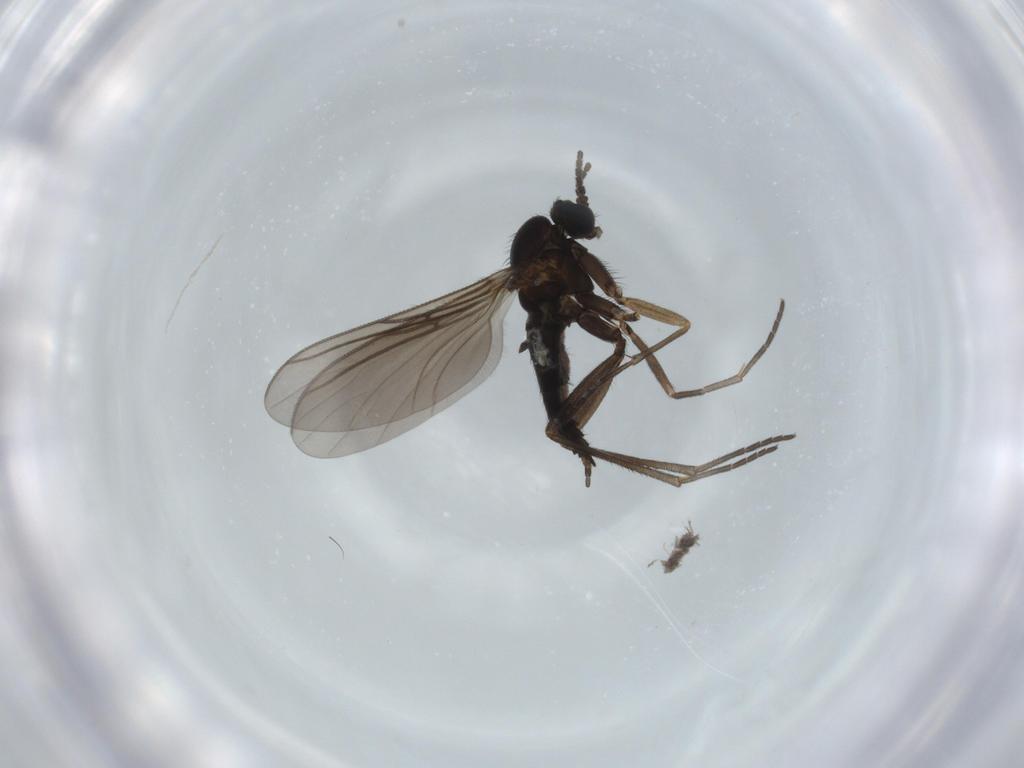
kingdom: Animalia
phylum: Arthropoda
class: Insecta
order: Diptera
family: Sciaridae
